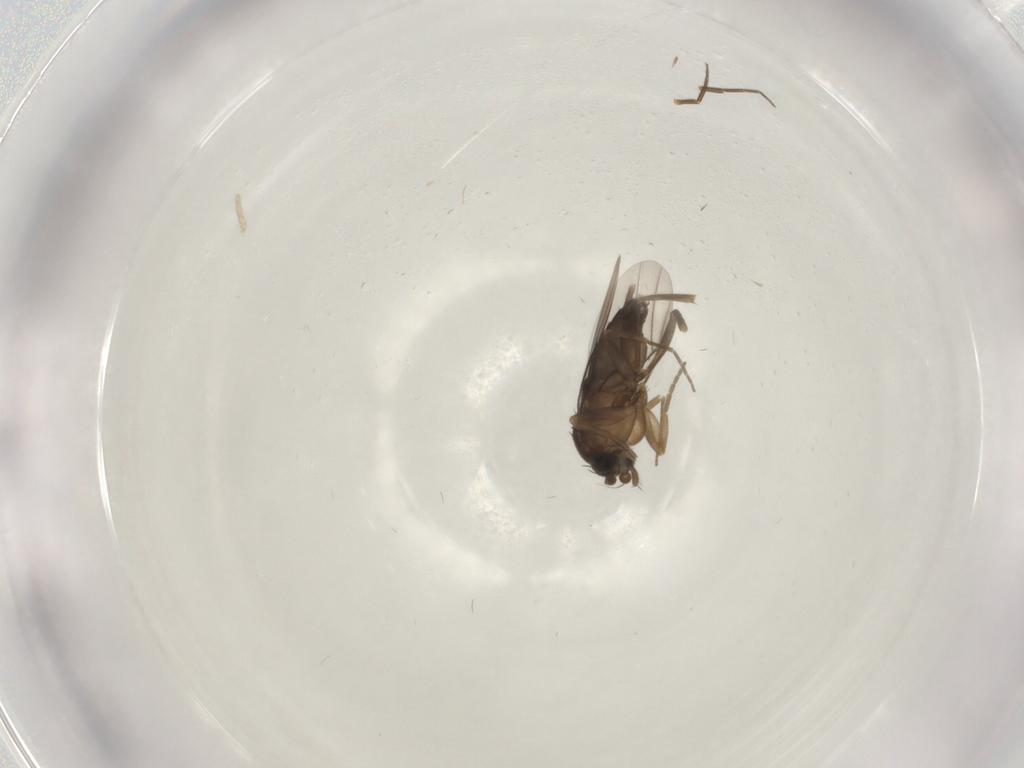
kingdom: Animalia
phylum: Arthropoda
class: Insecta
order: Diptera
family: Phoridae
